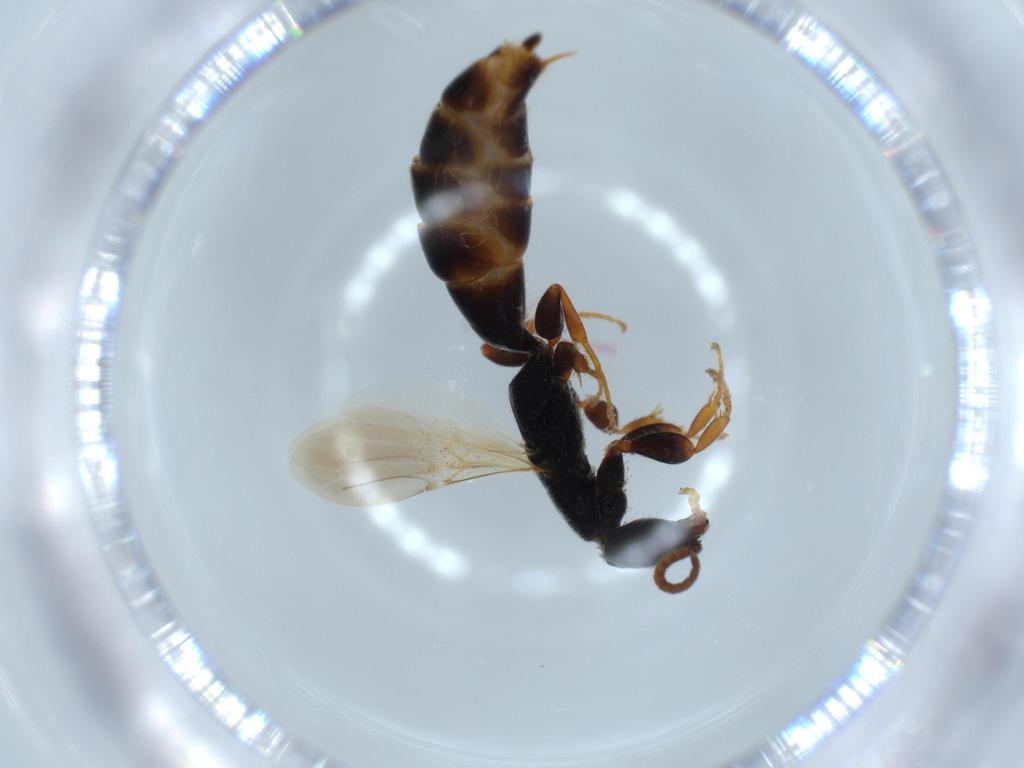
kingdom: Animalia
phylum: Arthropoda
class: Insecta
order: Hymenoptera
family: Bethylidae
